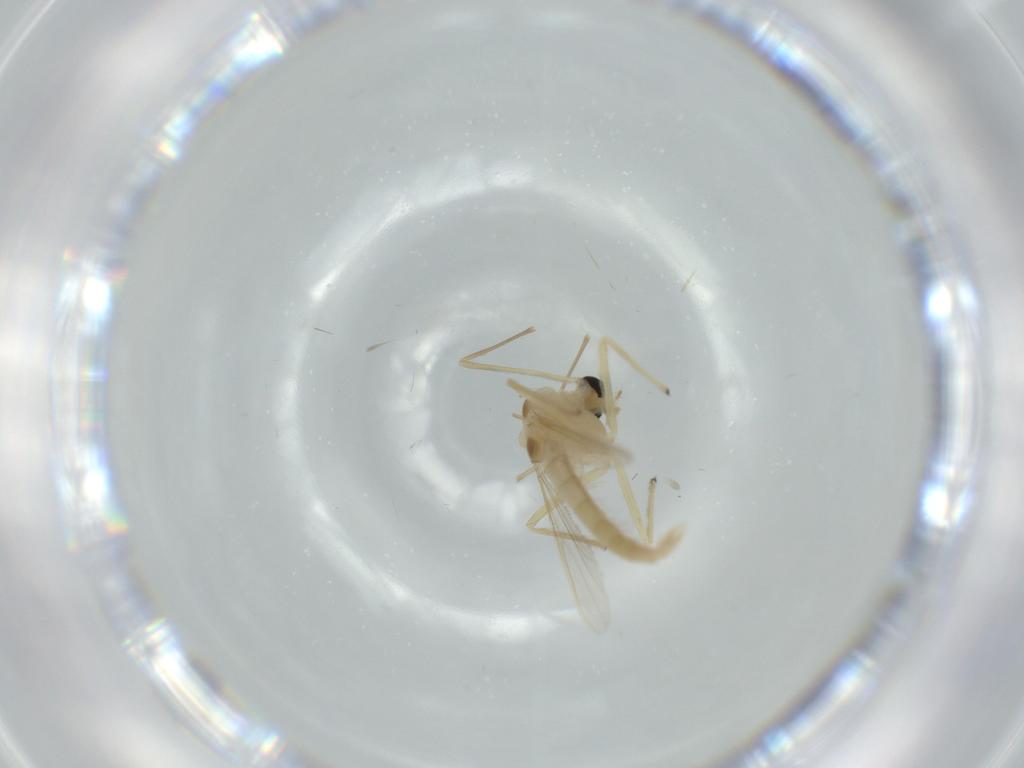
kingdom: Animalia
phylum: Arthropoda
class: Insecta
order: Diptera
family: Chironomidae
